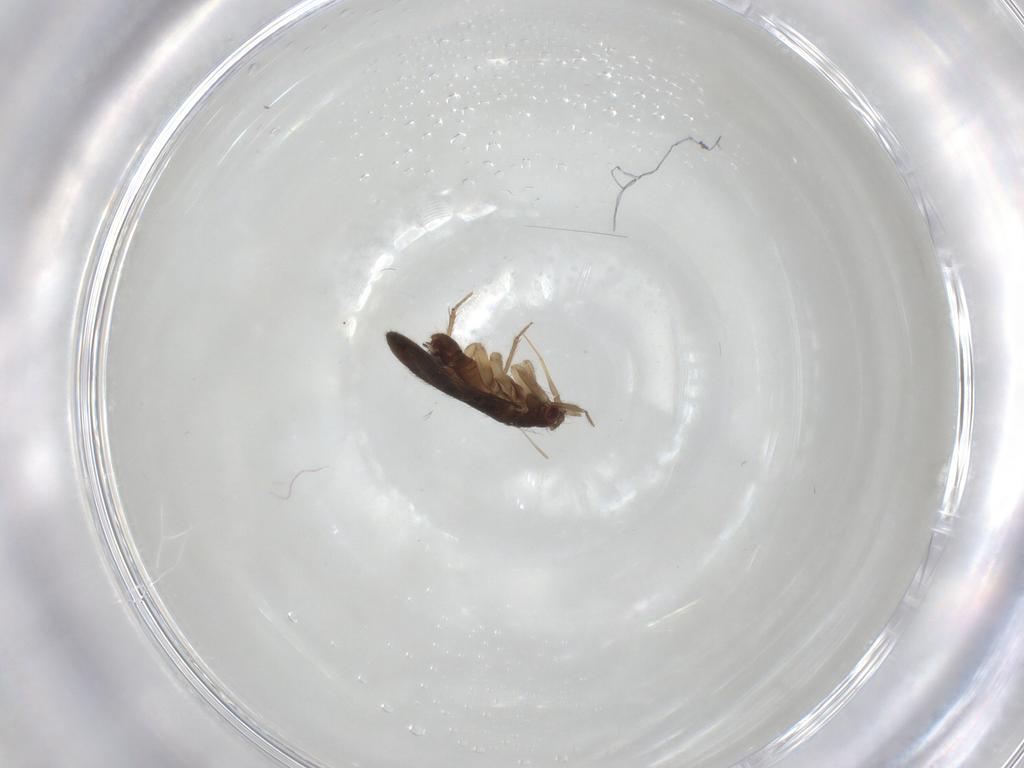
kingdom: Animalia
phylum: Arthropoda
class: Insecta
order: Hemiptera
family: Ceratocombidae
